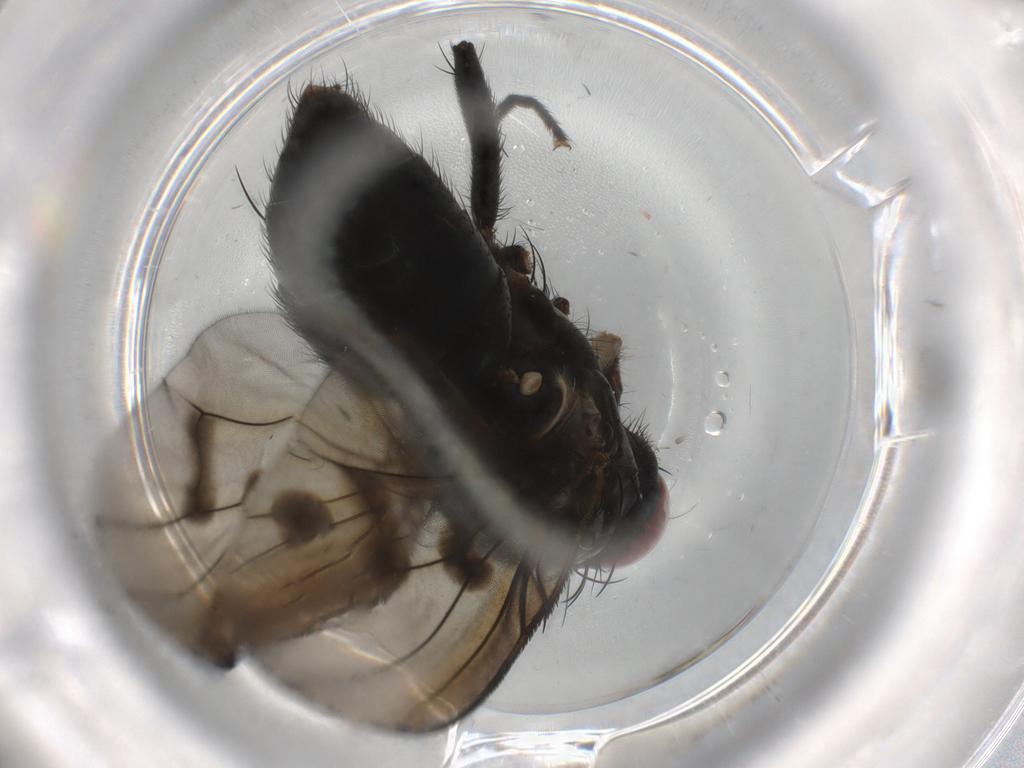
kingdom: Animalia
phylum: Arthropoda
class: Insecta
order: Diptera
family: Muscidae
